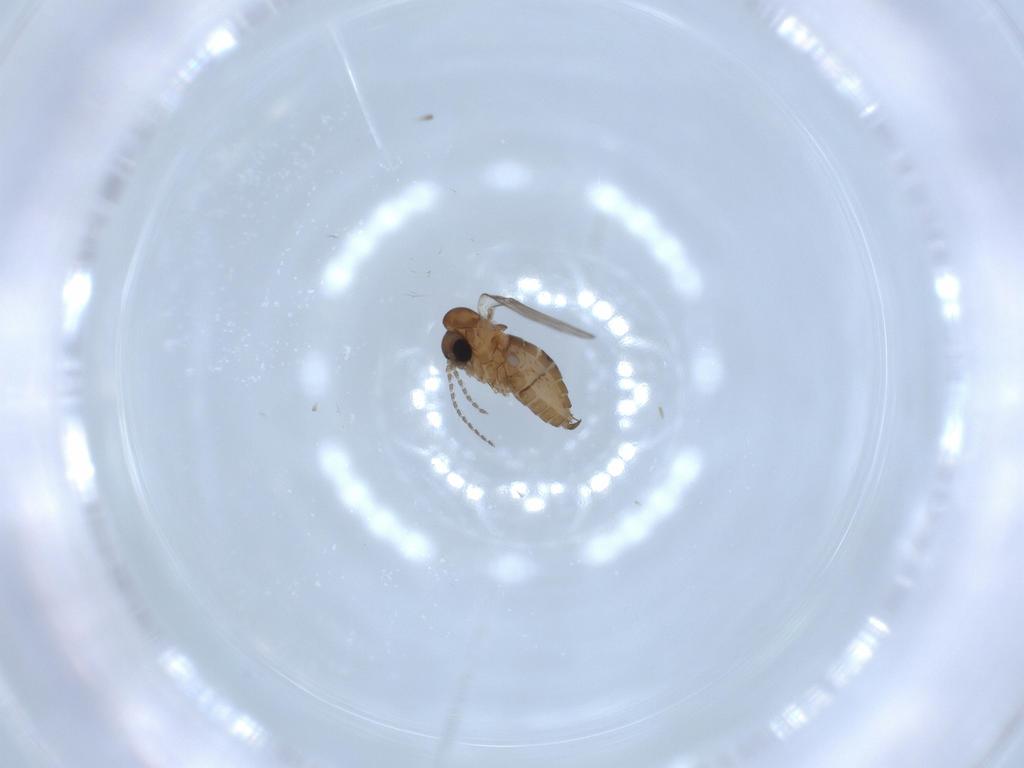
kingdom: Animalia
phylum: Arthropoda
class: Insecta
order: Diptera
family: Psychodidae
